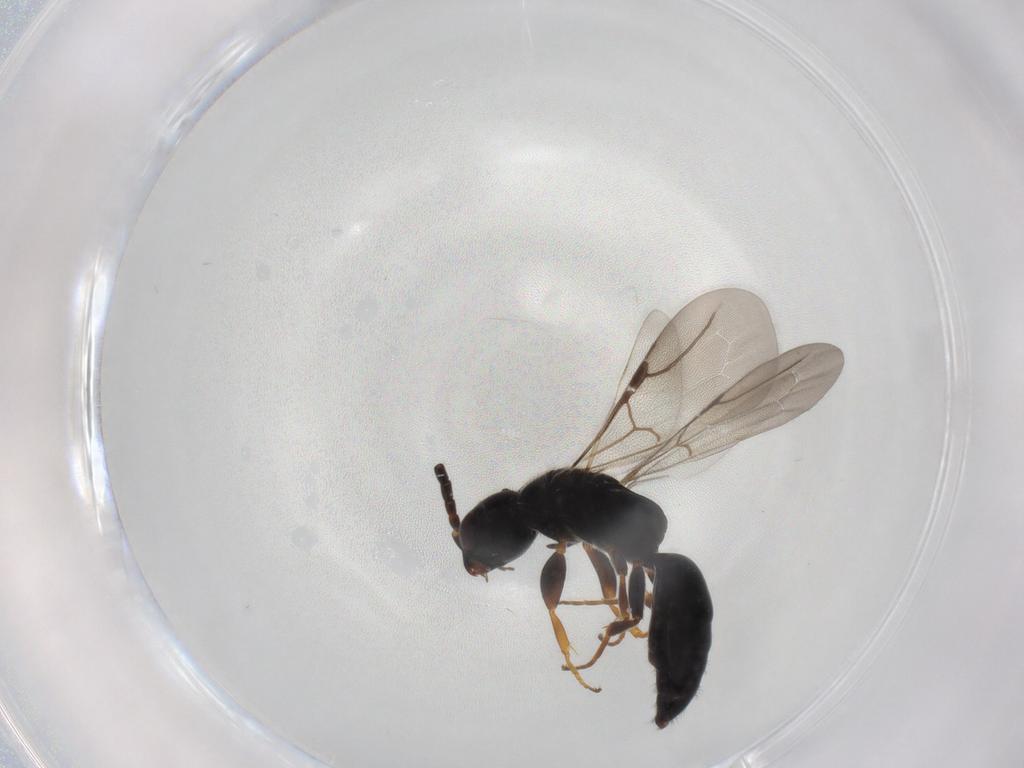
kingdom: Animalia
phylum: Arthropoda
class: Insecta
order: Hymenoptera
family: Bethylidae
